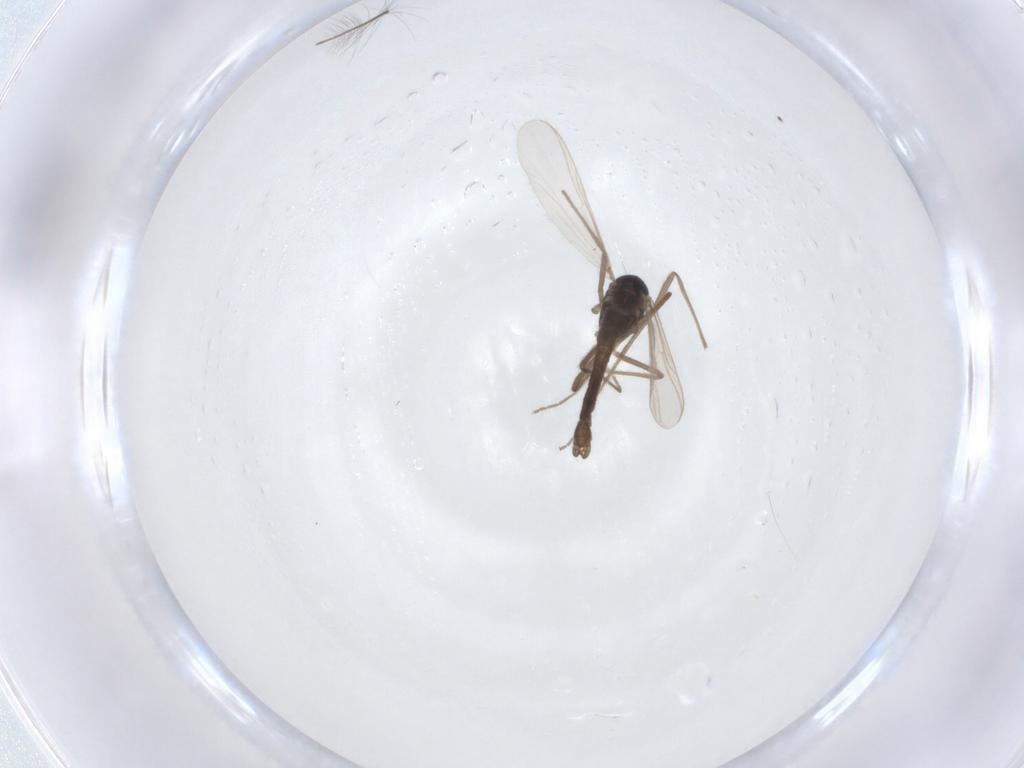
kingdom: Animalia
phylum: Arthropoda
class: Insecta
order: Diptera
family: Chironomidae
